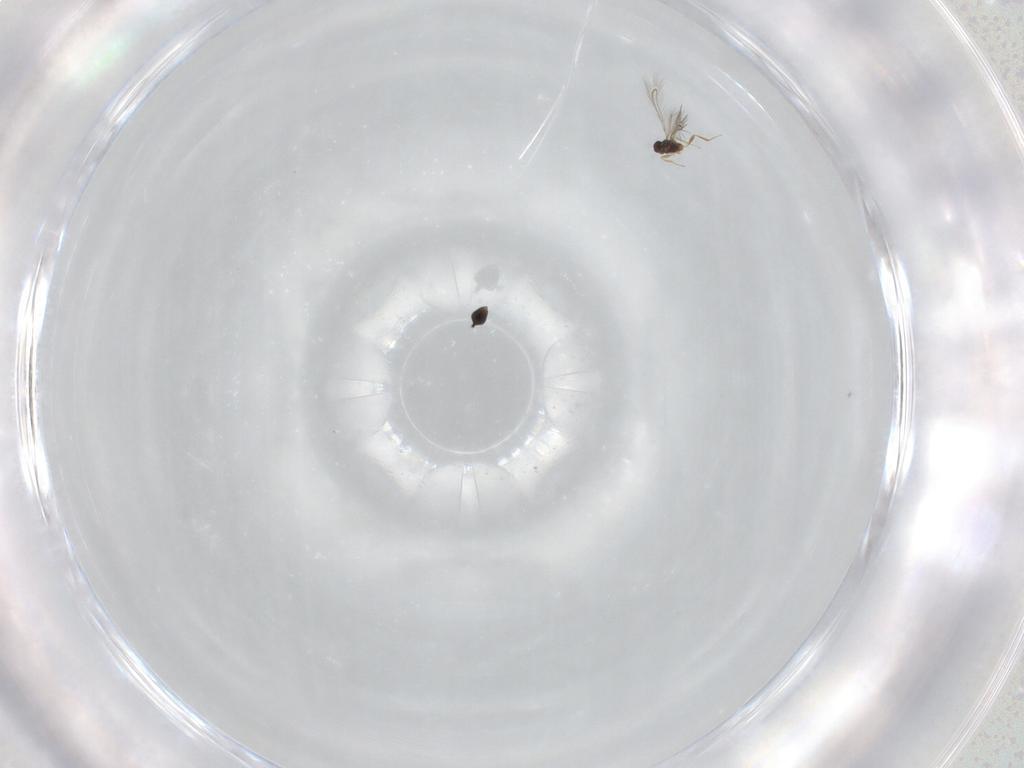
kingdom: Animalia
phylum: Arthropoda
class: Insecta
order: Hymenoptera
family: Mymaridae
